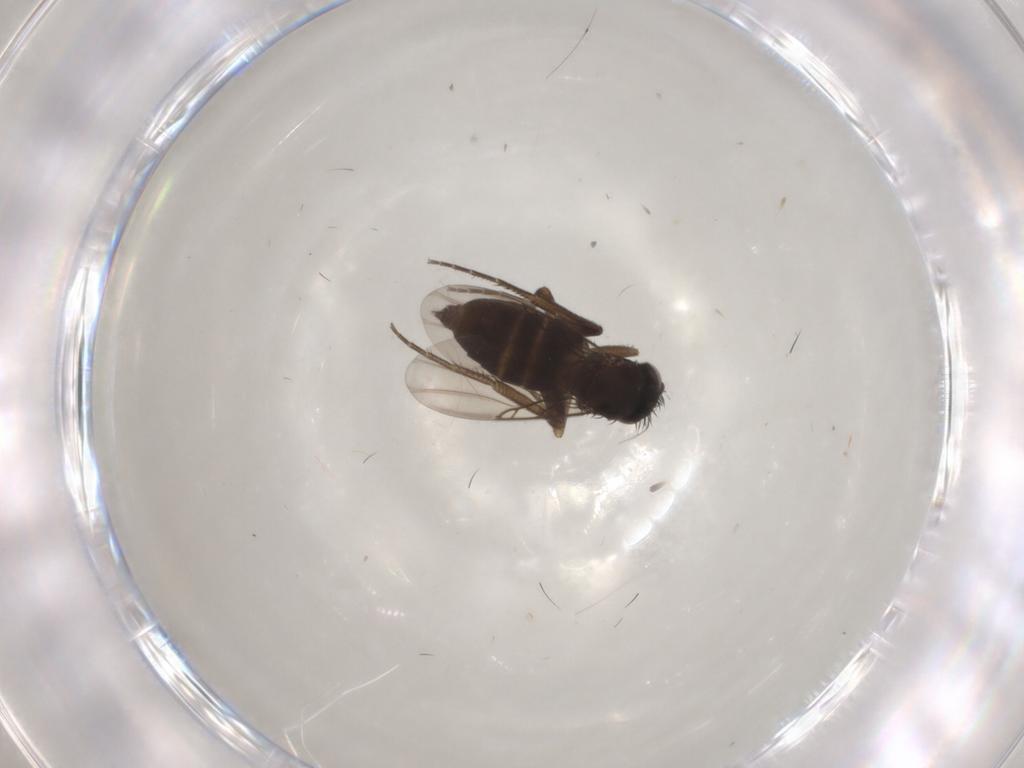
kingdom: Animalia
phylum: Arthropoda
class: Insecta
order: Diptera
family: Phoridae
